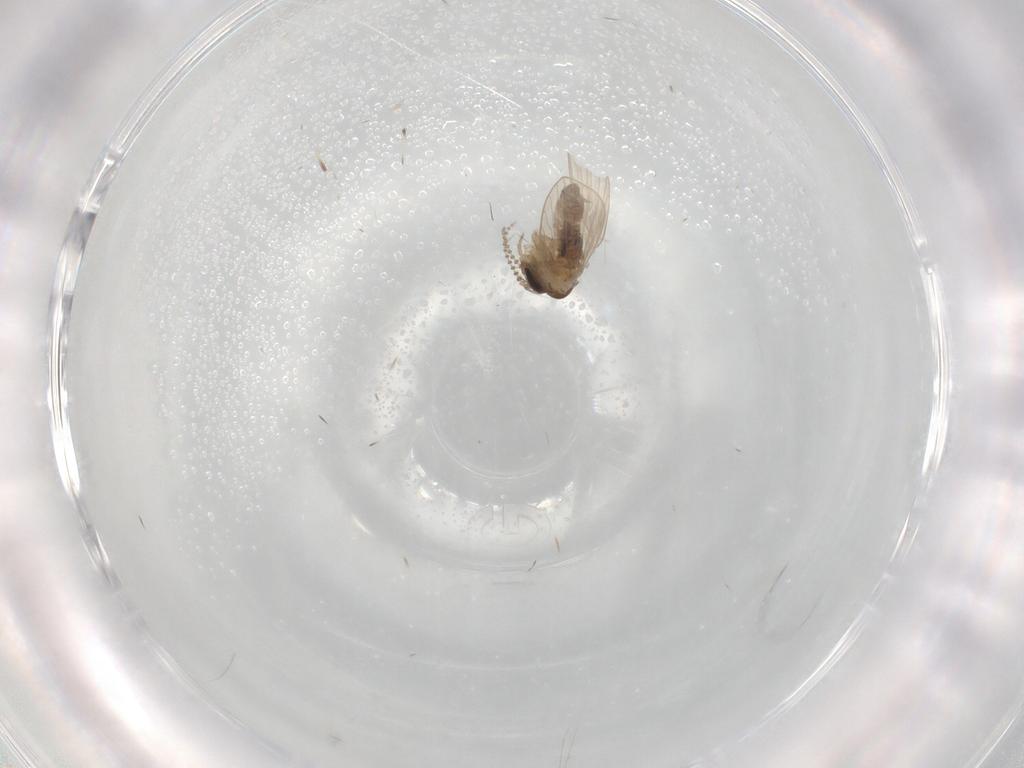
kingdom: Animalia
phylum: Arthropoda
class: Insecta
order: Diptera
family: Psychodidae
